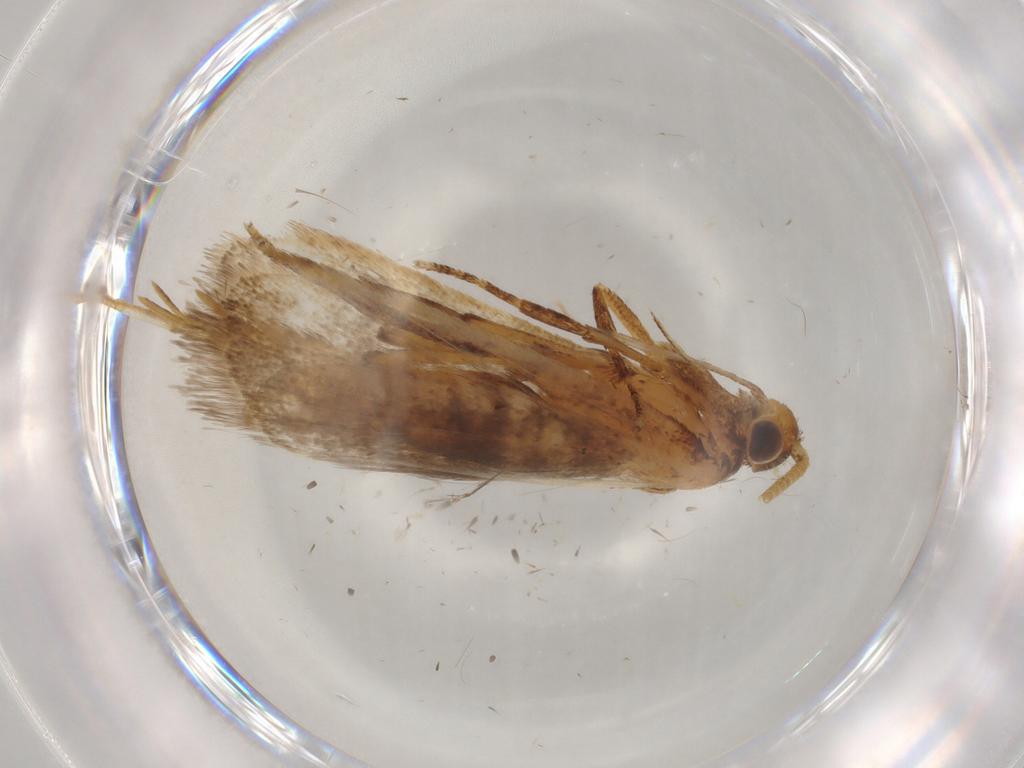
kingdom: Animalia
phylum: Arthropoda
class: Insecta
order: Lepidoptera
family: Lecithoceridae
